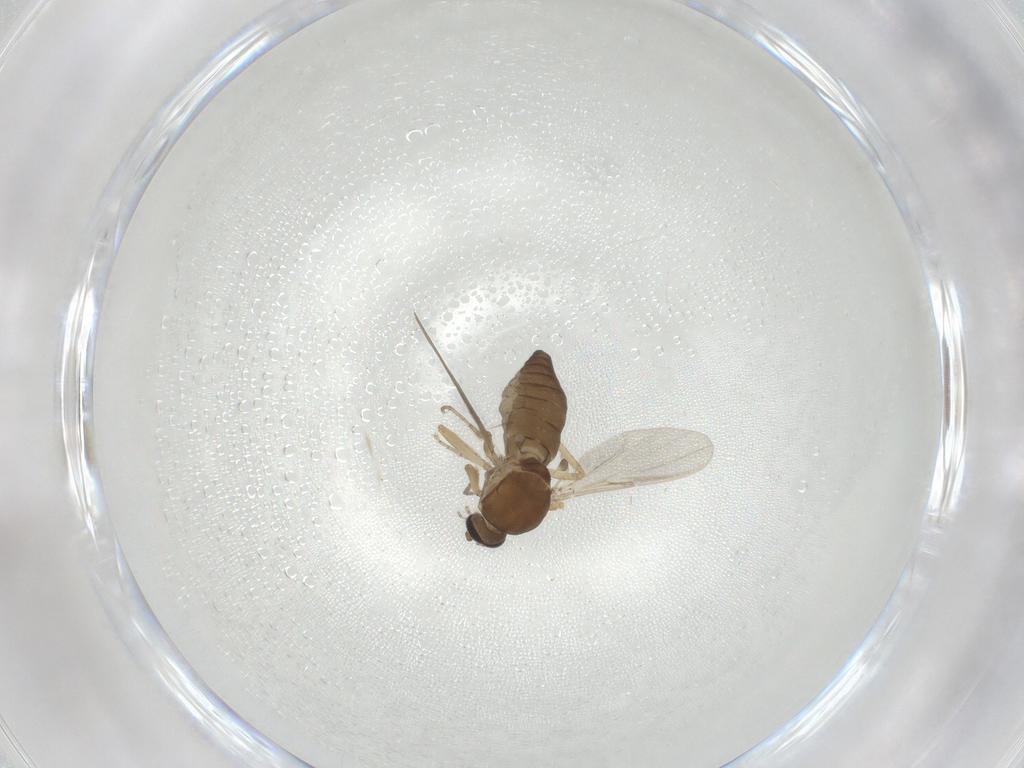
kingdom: Animalia
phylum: Arthropoda
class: Insecta
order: Diptera
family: Ceratopogonidae
